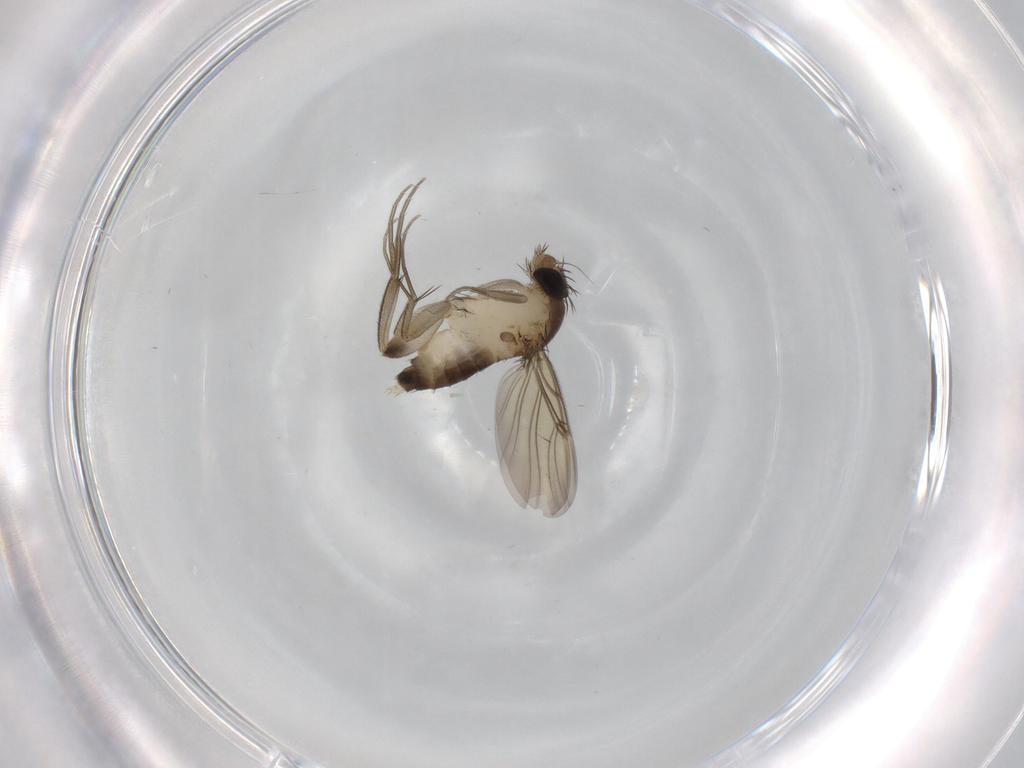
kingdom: Animalia
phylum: Arthropoda
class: Insecta
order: Diptera
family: Phoridae
